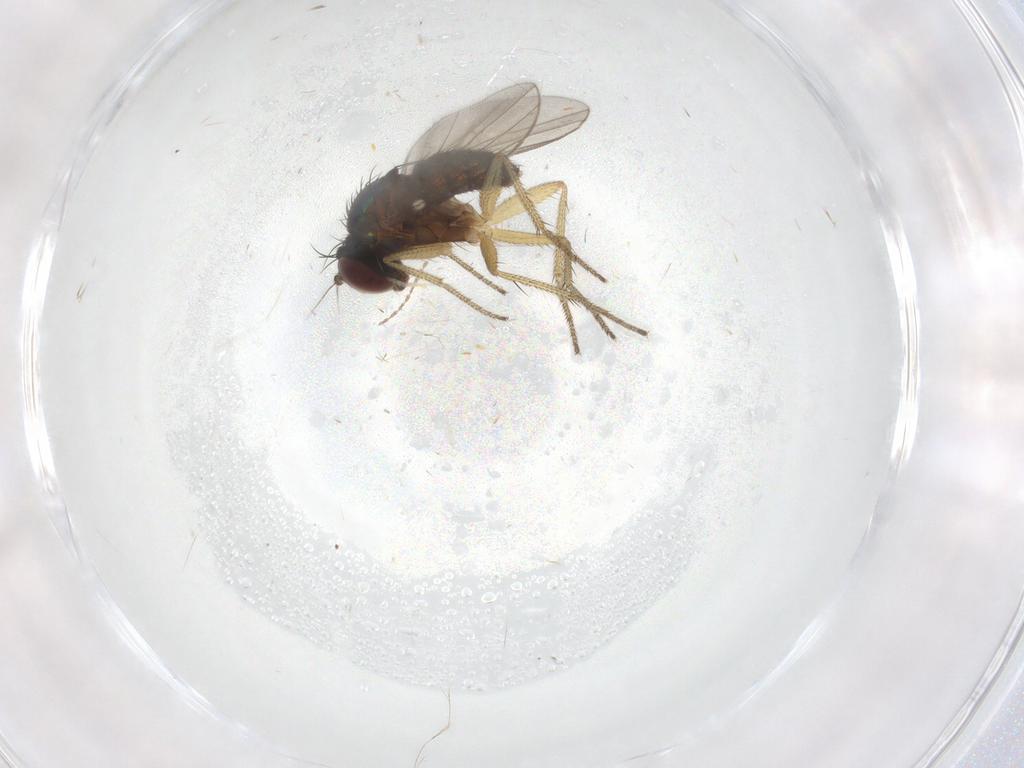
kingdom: Animalia
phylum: Arthropoda
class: Insecta
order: Diptera
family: Dolichopodidae
